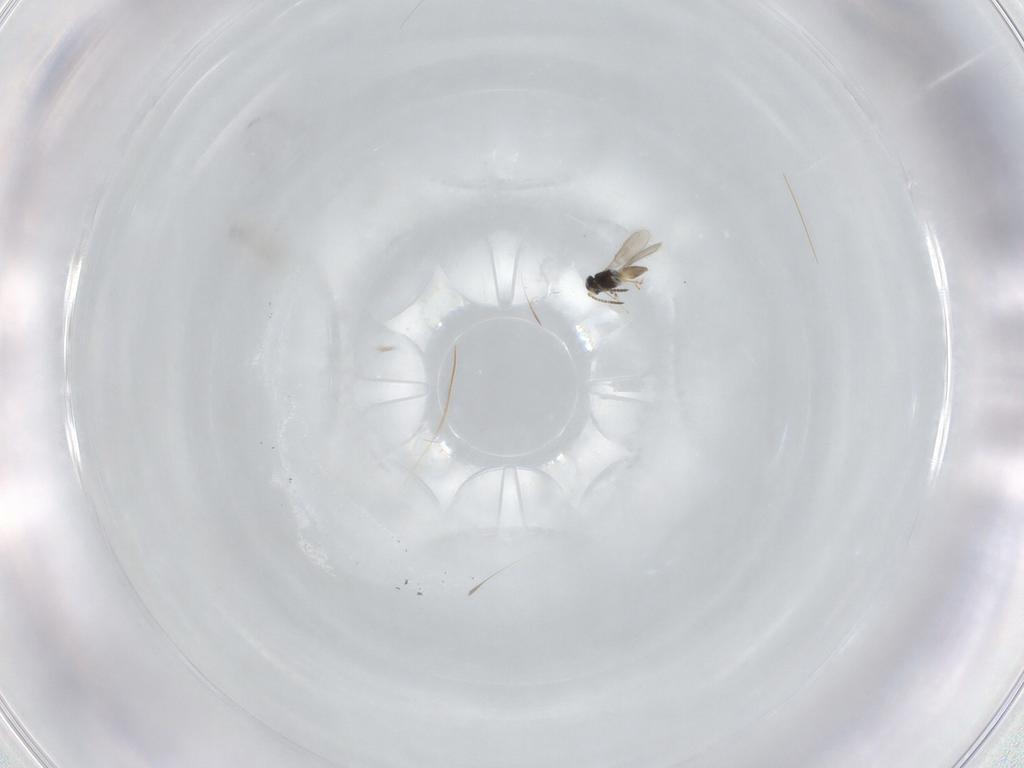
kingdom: Animalia
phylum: Arthropoda
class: Insecta
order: Hymenoptera
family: Scelionidae
